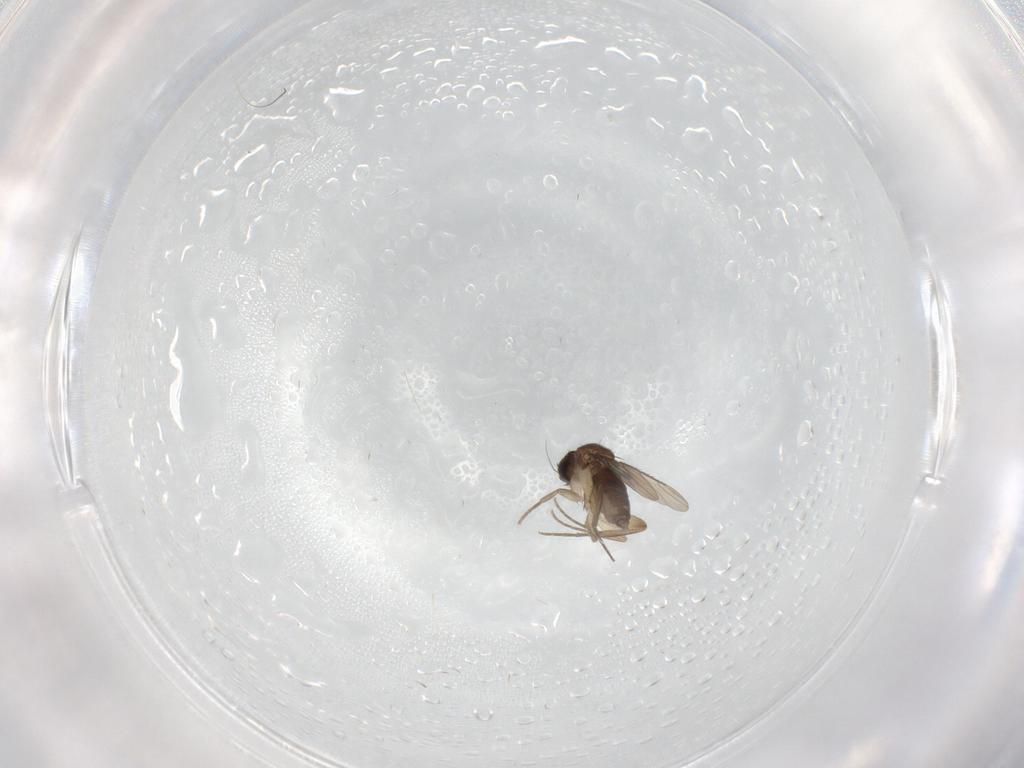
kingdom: Animalia
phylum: Arthropoda
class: Insecta
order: Diptera
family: Phoridae
